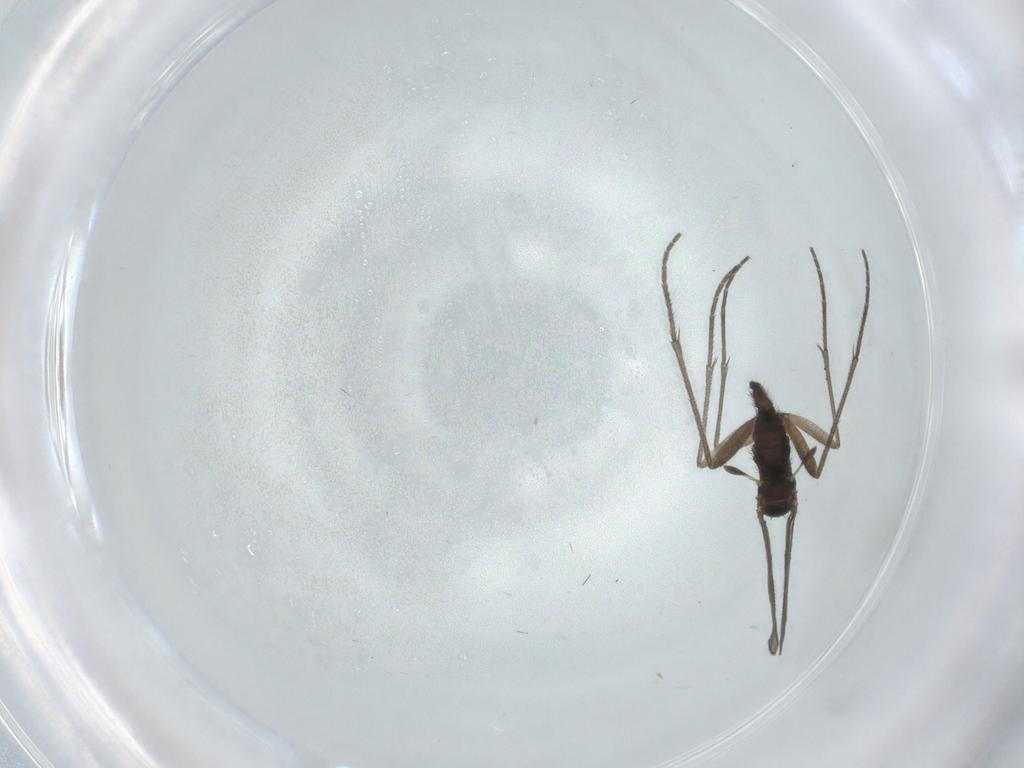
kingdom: Animalia
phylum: Arthropoda
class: Insecta
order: Diptera
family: Sciaridae
